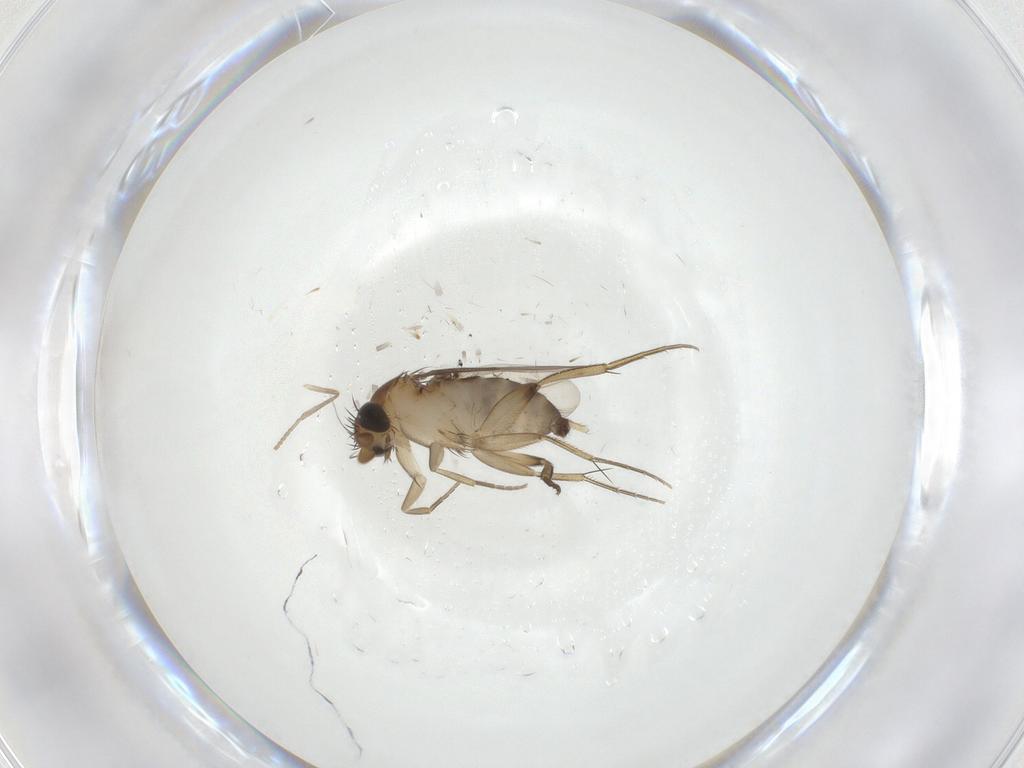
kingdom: Animalia
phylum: Arthropoda
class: Insecta
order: Diptera
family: Phoridae
